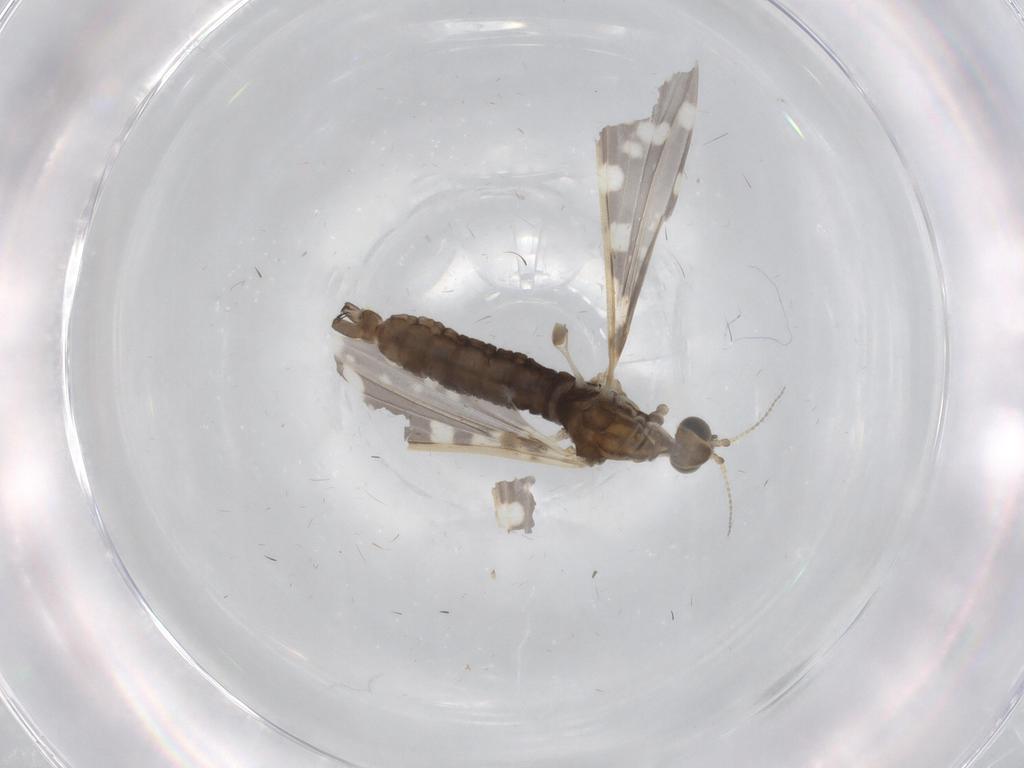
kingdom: Animalia
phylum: Arthropoda
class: Insecta
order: Diptera
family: Limoniidae
